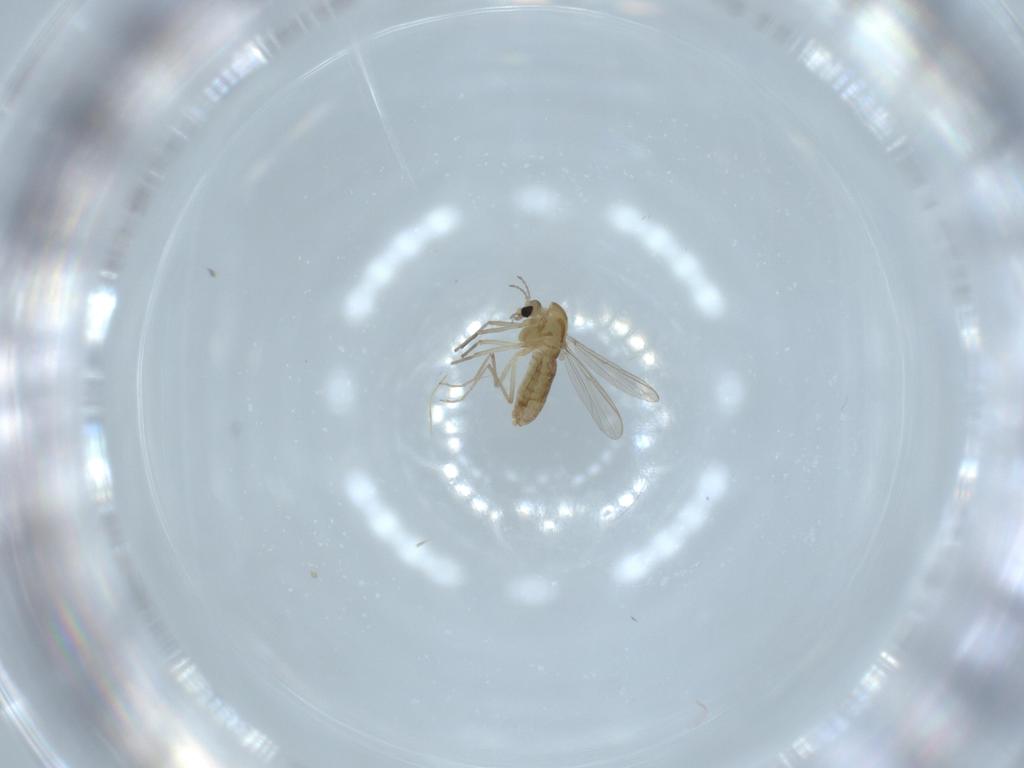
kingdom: Animalia
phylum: Arthropoda
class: Insecta
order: Diptera
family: Chironomidae
